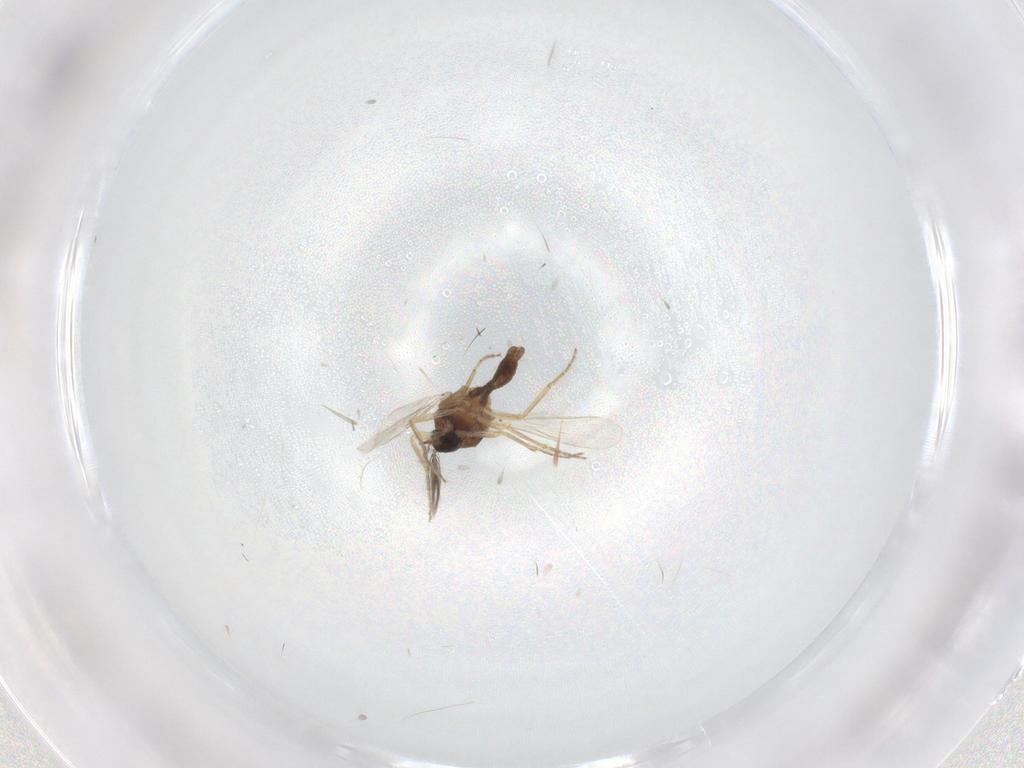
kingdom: Animalia
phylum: Arthropoda
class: Insecta
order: Diptera
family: Ceratopogonidae
